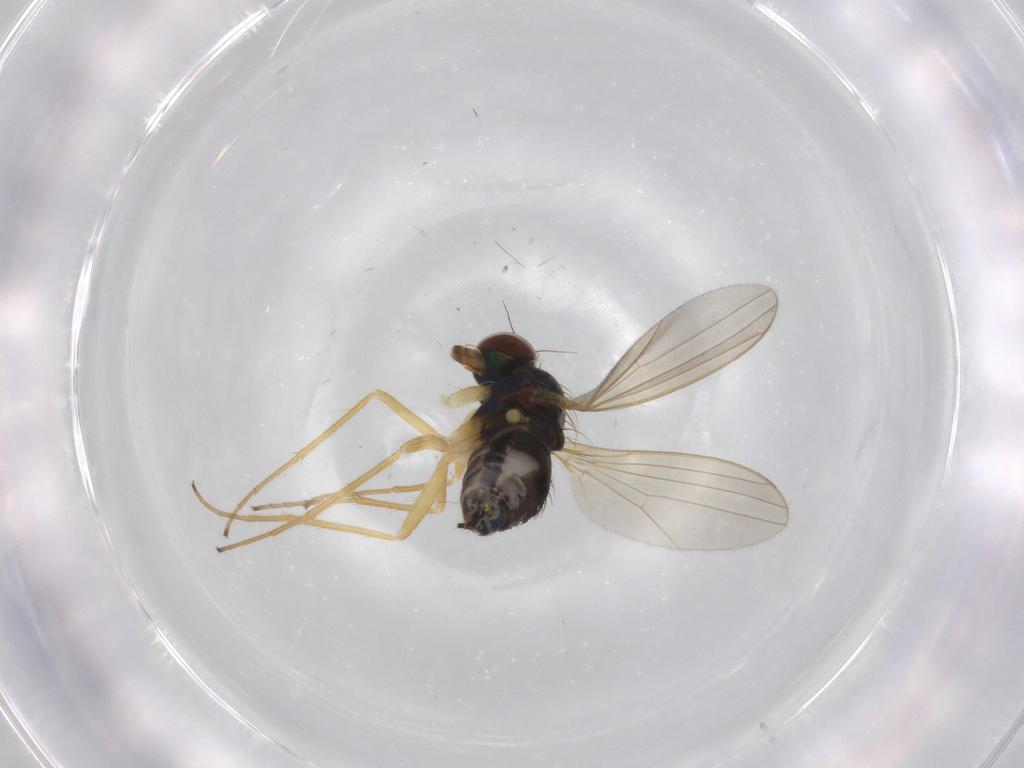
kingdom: Animalia
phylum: Arthropoda
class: Insecta
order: Diptera
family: Dolichopodidae
